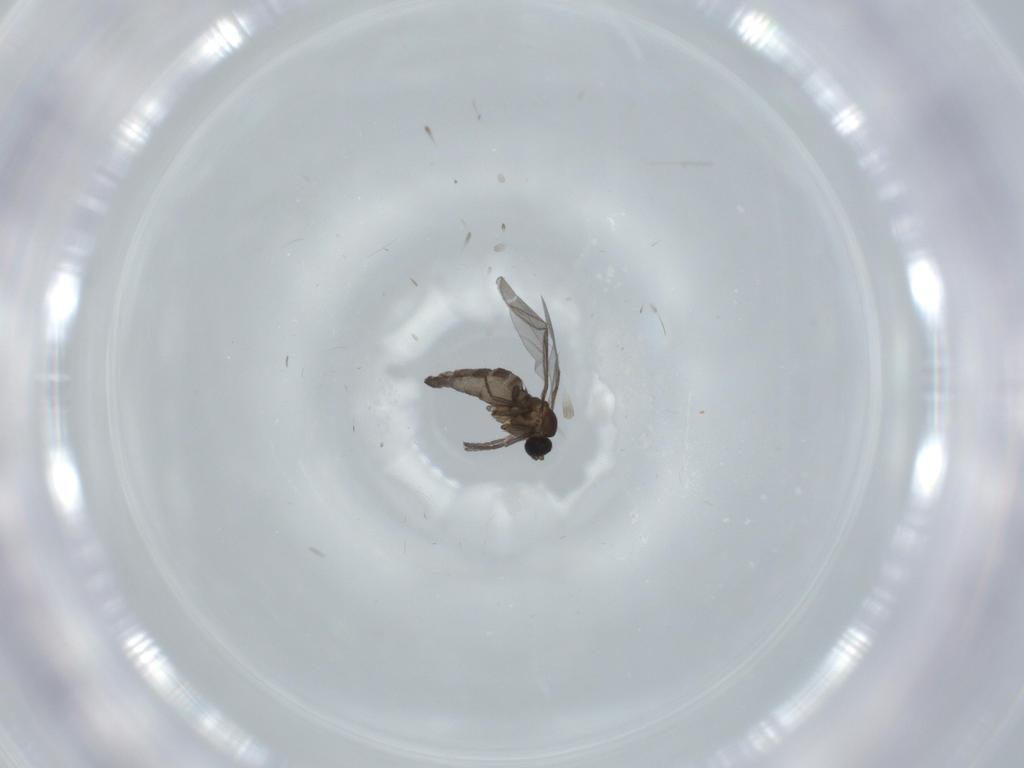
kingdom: Animalia
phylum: Arthropoda
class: Insecta
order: Diptera
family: Cecidomyiidae
